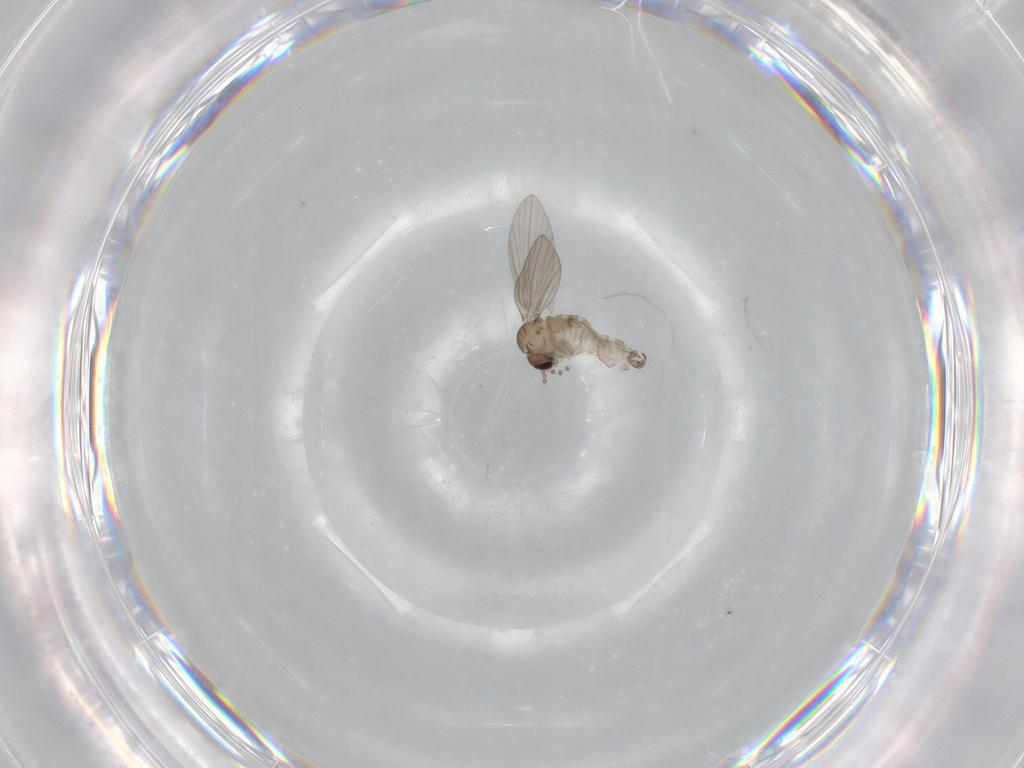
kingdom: Animalia
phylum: Arthropoda
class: Insecta
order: Diptera
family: Psychodidae
